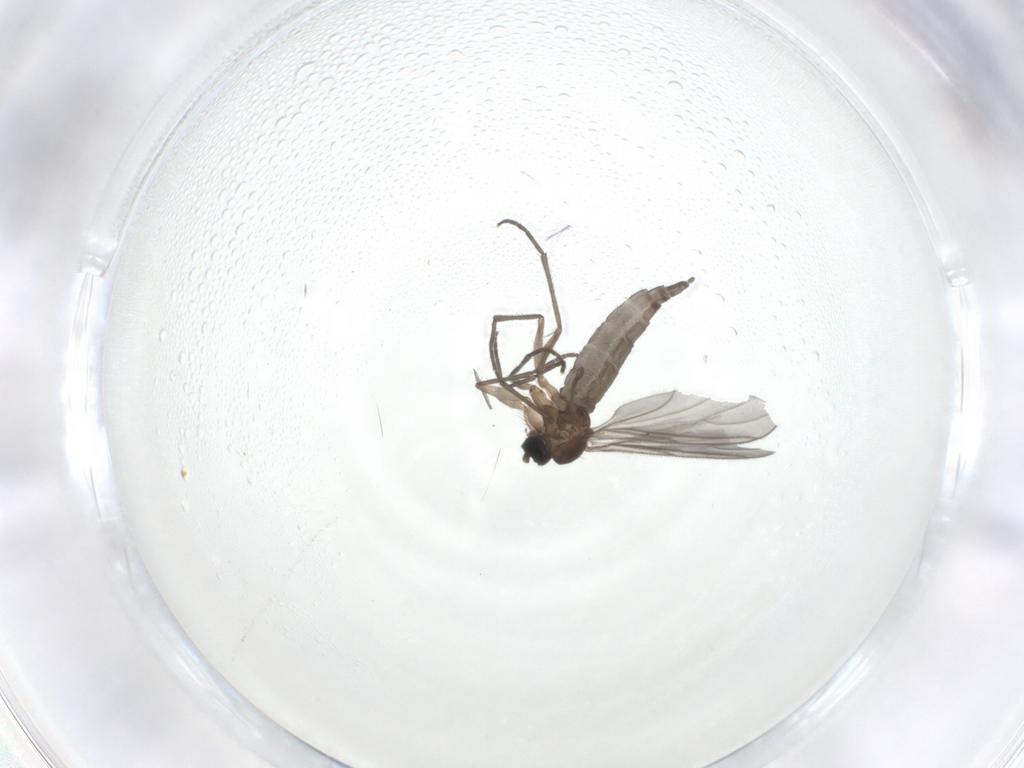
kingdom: Animalia
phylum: Arthropoda
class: Insecta
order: Diptera
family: Sciaridae
